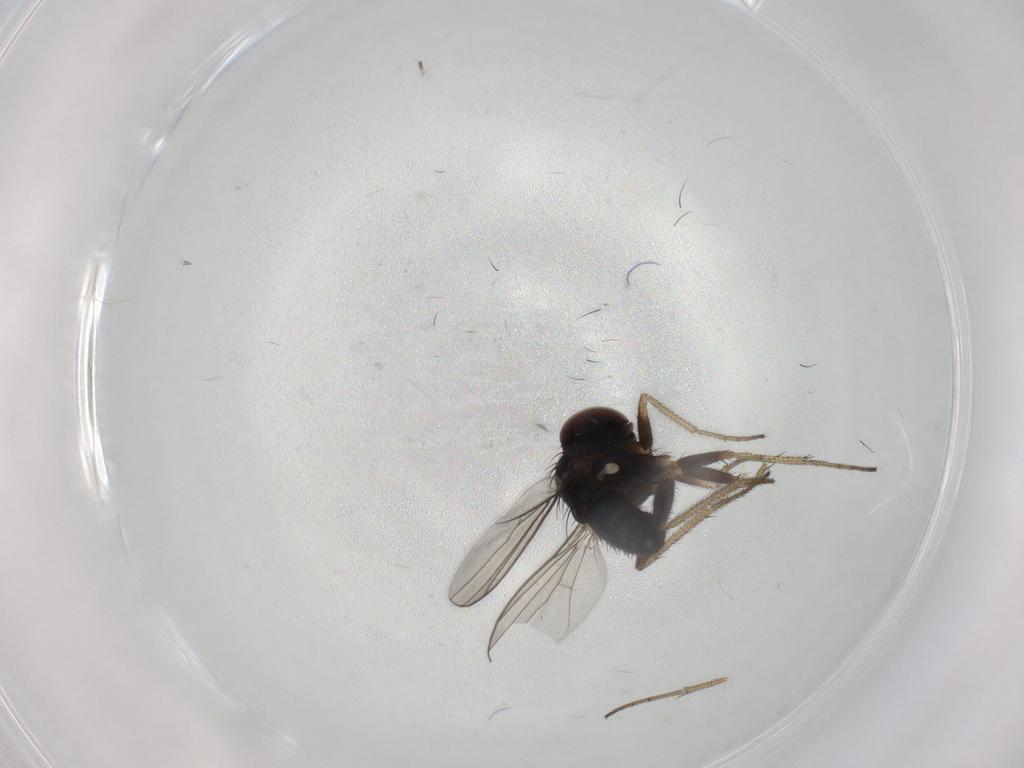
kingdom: Animalia
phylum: Arthropoda
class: Insecta
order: Diptera
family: Dolichopodidae
